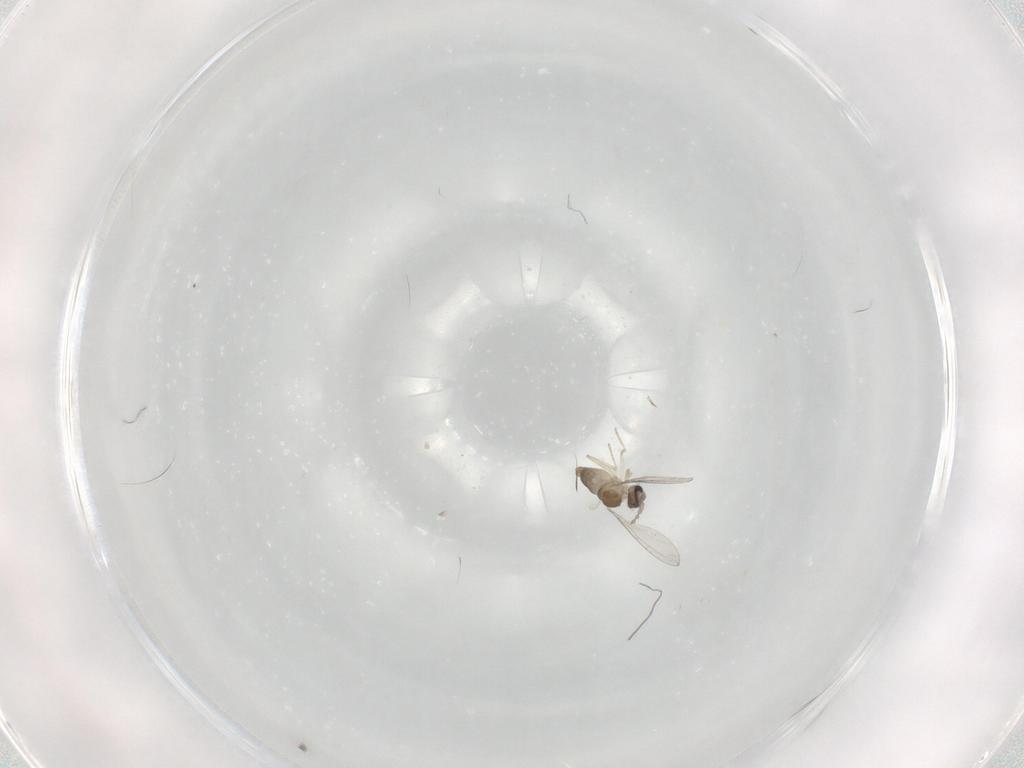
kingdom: Animalia
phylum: Arthropoda
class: Insecta
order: Diptera
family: Cecidomyiidae
